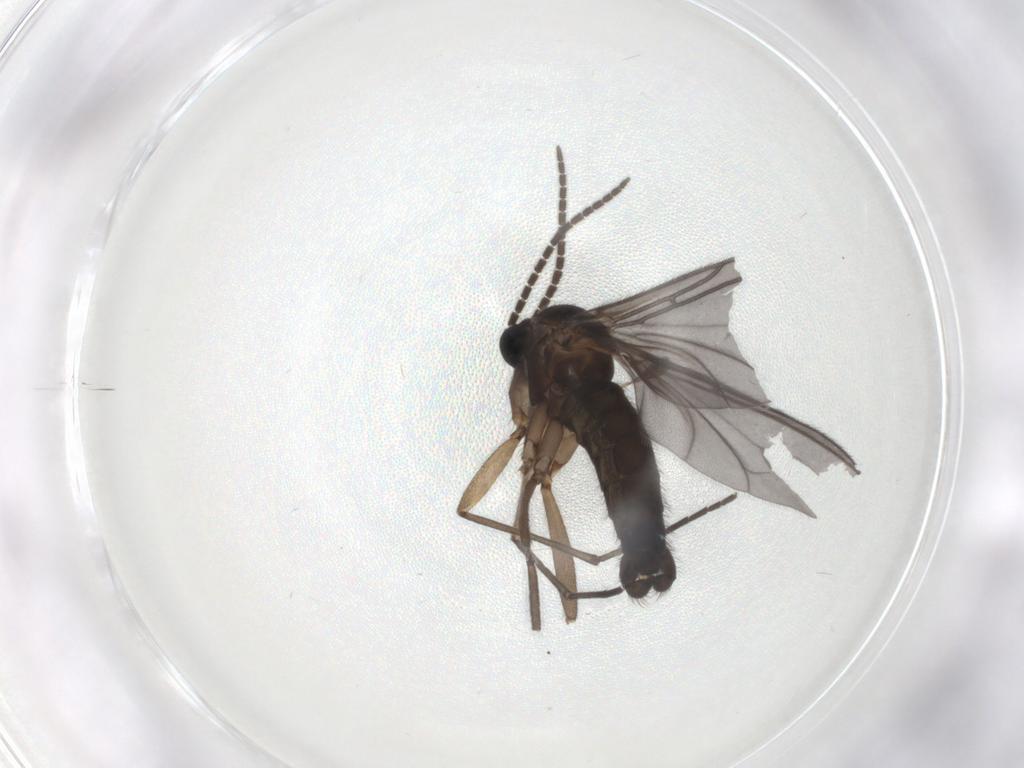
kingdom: Animalia
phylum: Arthropoda
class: Insecta
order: Diptera
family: Sciaridae
